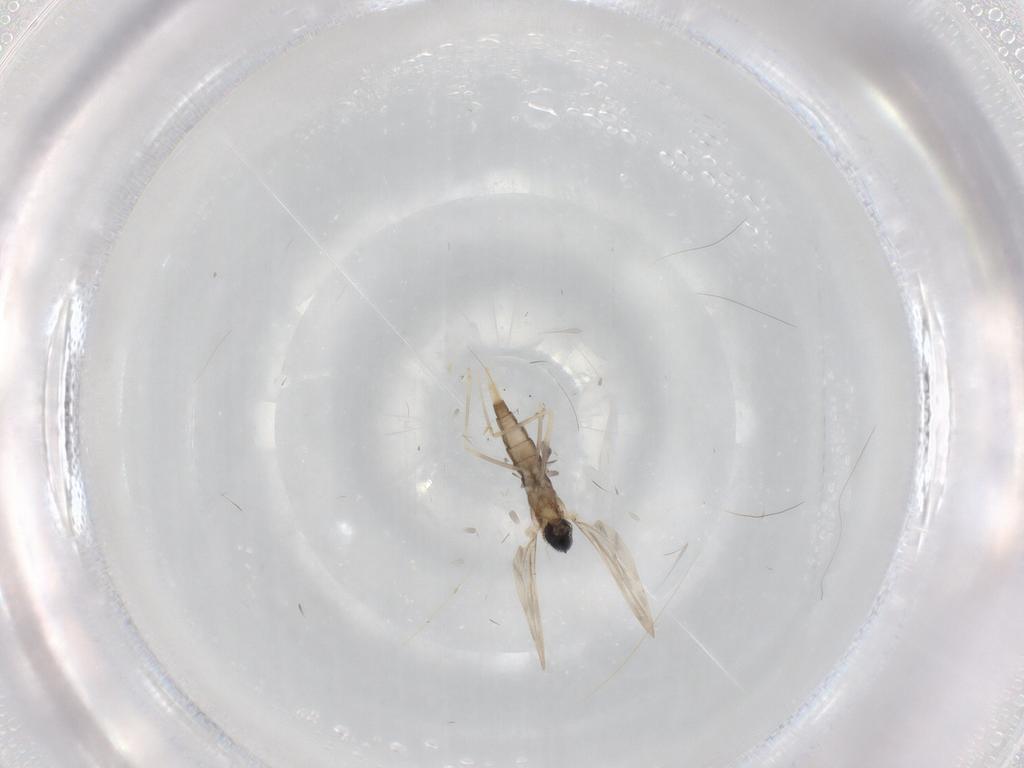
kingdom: Animalia
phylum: Arthropoda
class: Insecta
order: Diptera
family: Cecidomyiidae
